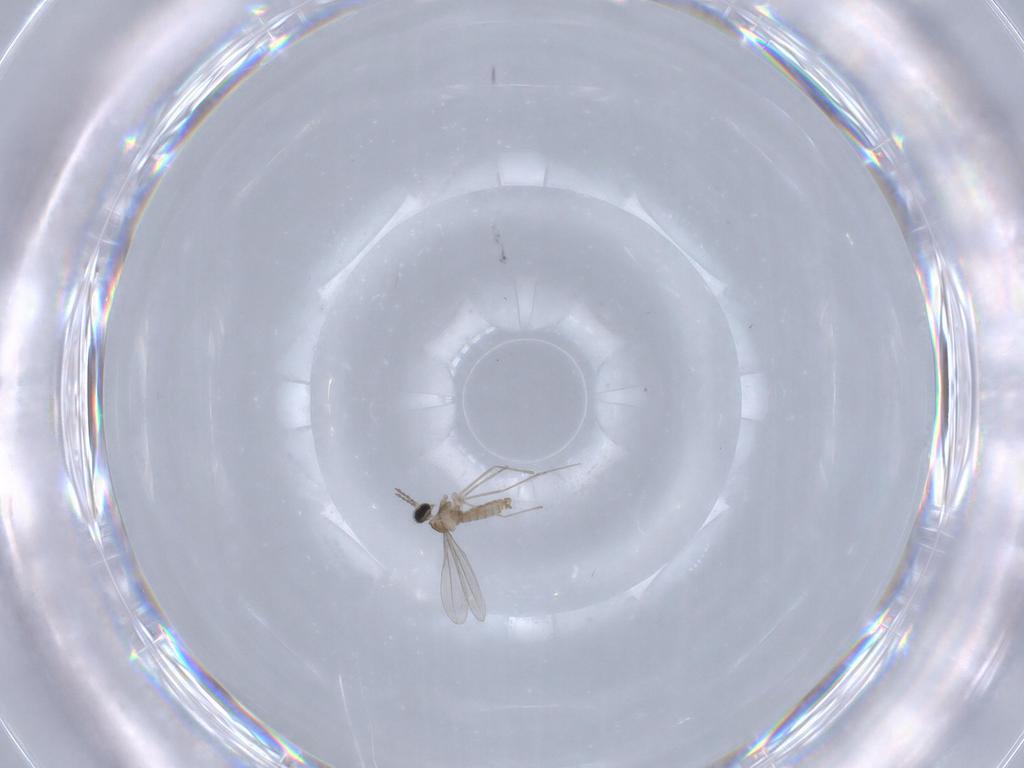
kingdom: Animalia
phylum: Arthropoda
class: Insecta
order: Diptera
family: Cecidomyiidae
